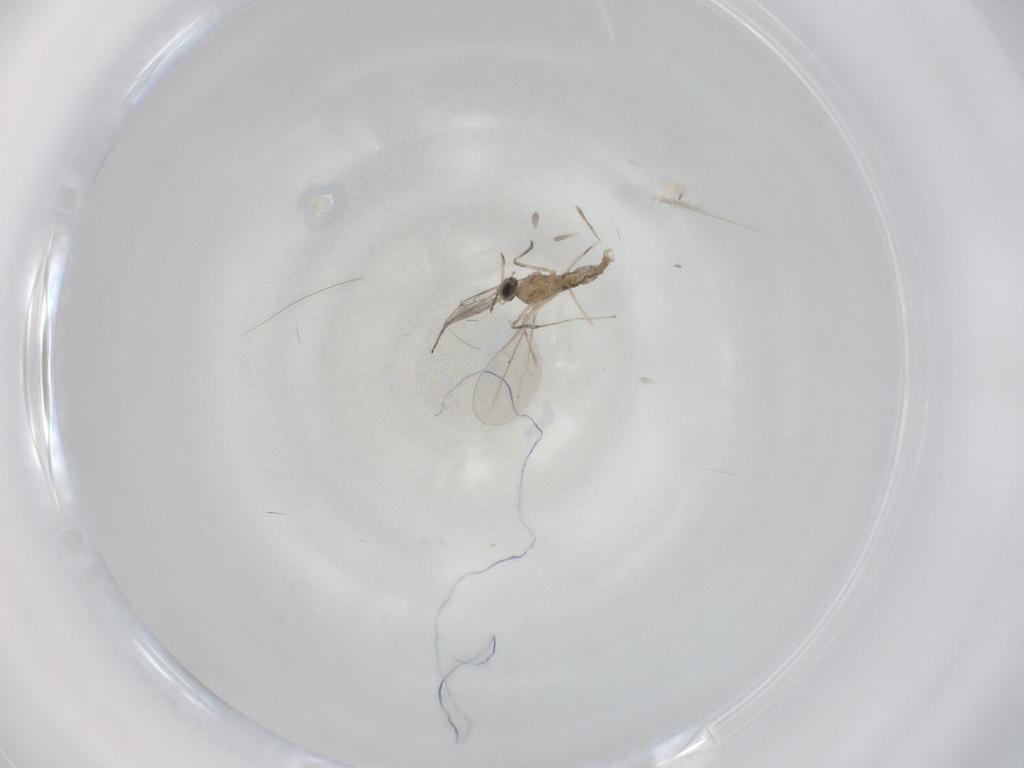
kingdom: Animalia
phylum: Arthropoda
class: Insecta
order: Diptera
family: Cecidomyiidae
